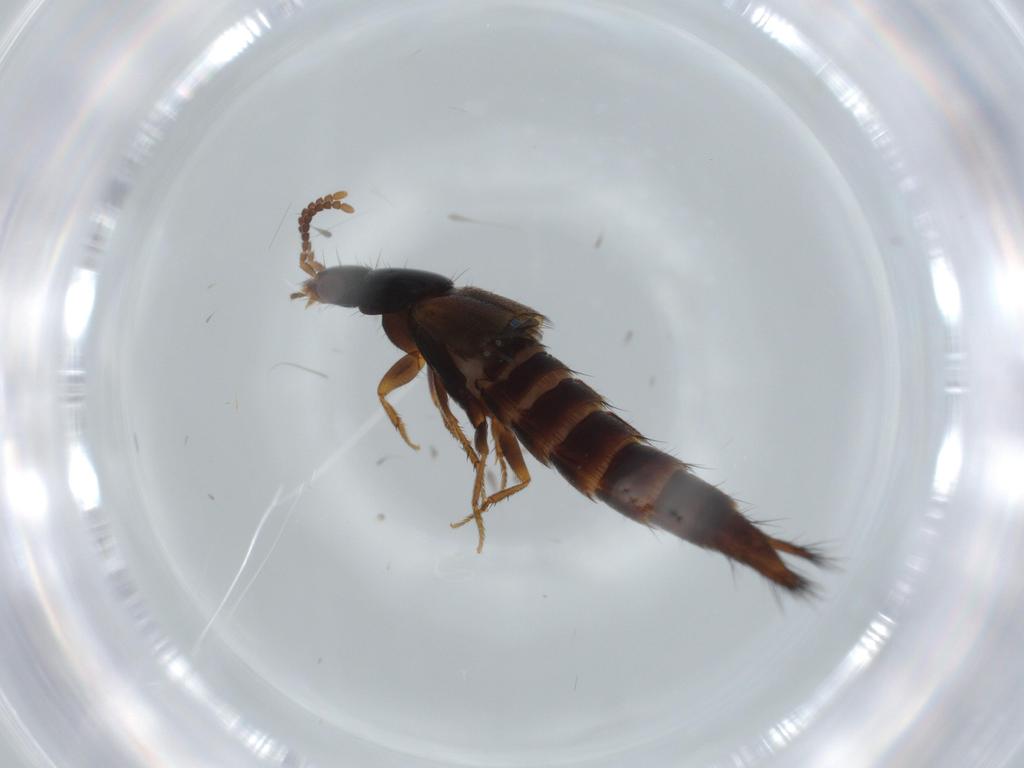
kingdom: Animalia
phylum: Arthropoda
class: Insecta
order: Coleoptera
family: Staphylinidae
